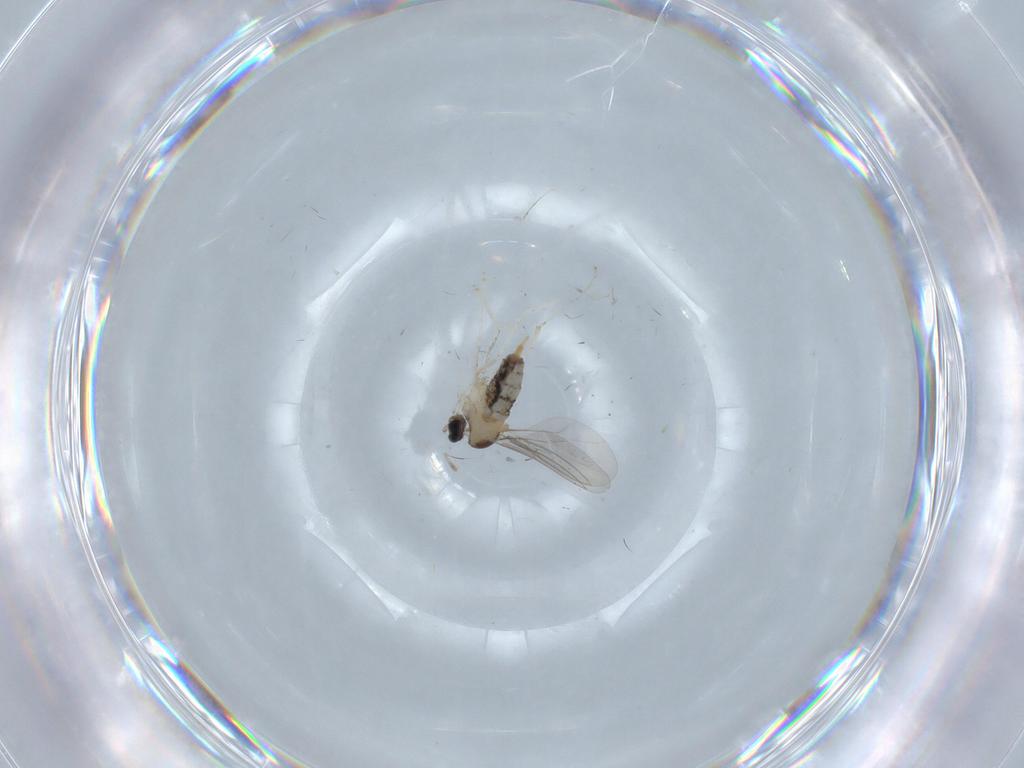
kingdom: Animalia
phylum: Arthropoda
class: Insecta
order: Diptera
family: Cecidomyiidae
